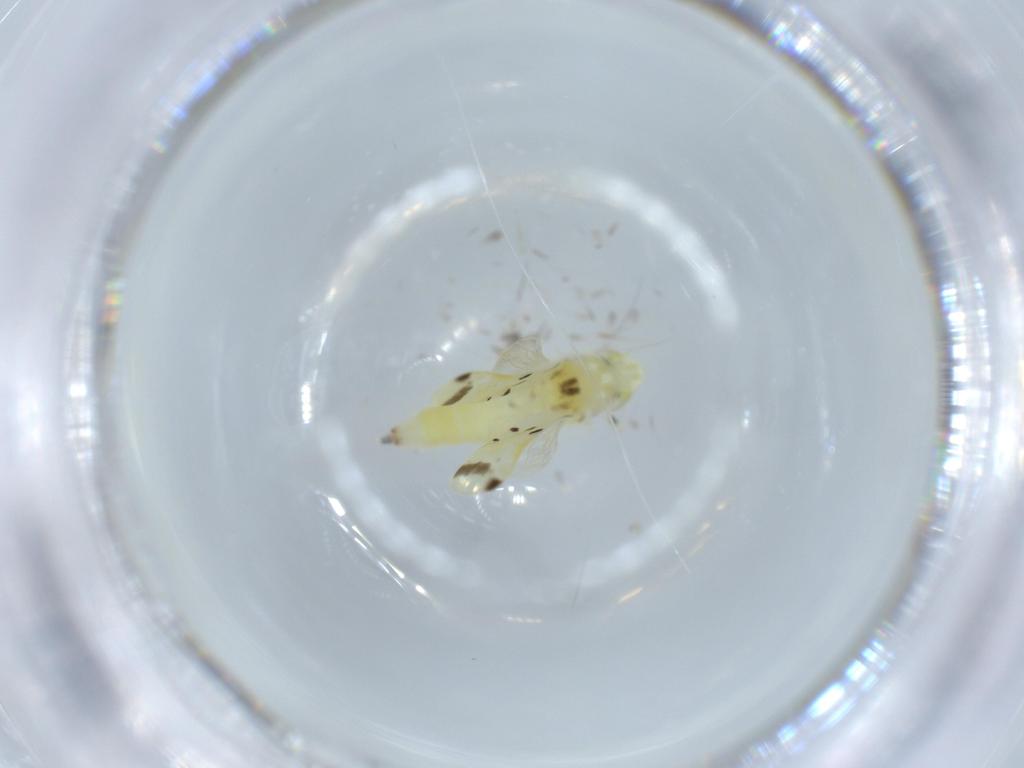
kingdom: Animalia
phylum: Arthropoda
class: Insecta
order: Hemiptera
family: Cicadellidae
